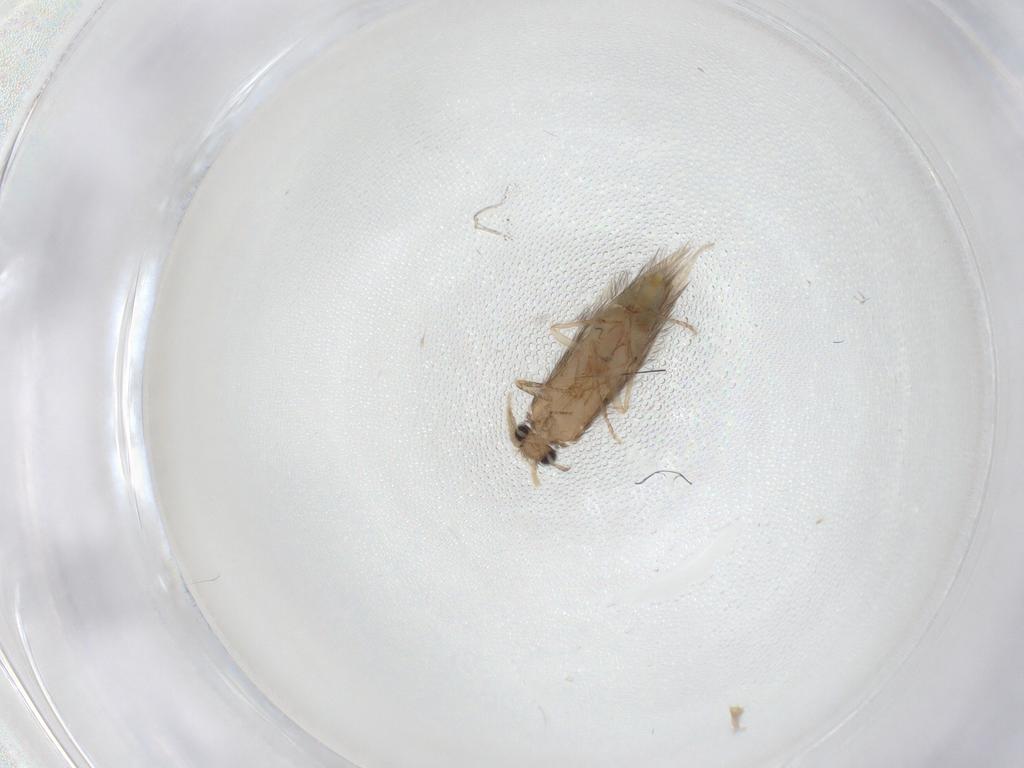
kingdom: Animalia
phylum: Arthropoda
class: Insecta
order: Trichoptera
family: Hydroptilidae
